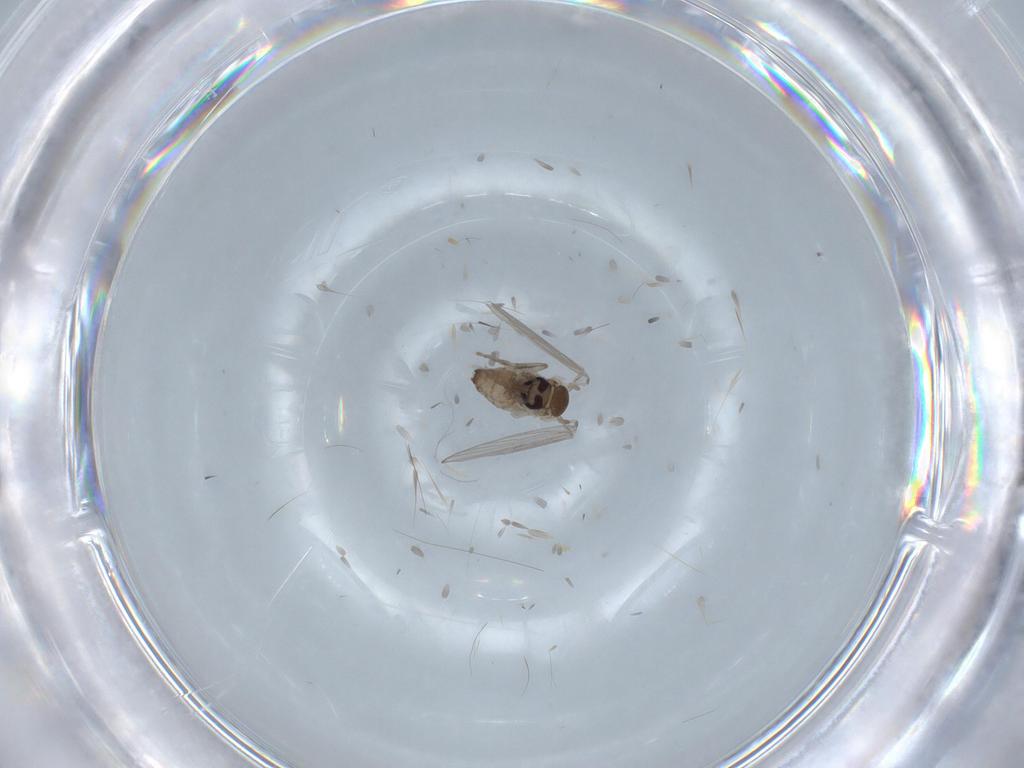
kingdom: Animalia
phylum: Arthropoda
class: Insecta
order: Diptera
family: Psychodidae
